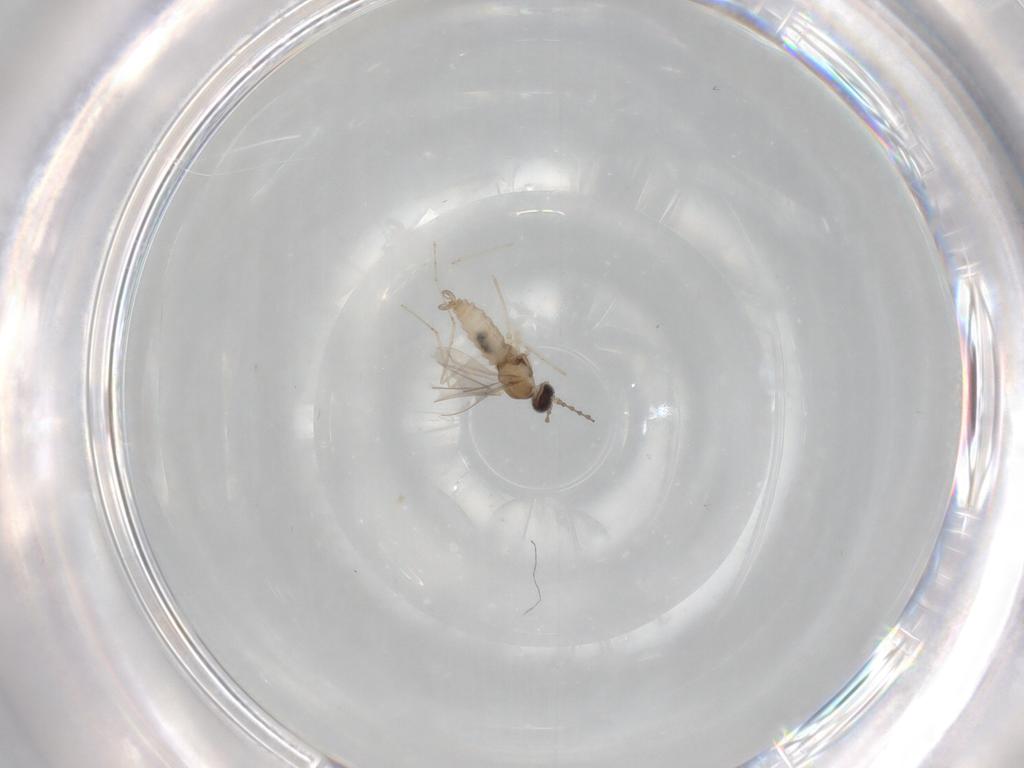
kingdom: Animalia
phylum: Arthropoda
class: Insecta
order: Diptera
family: Cecidomyiidae
